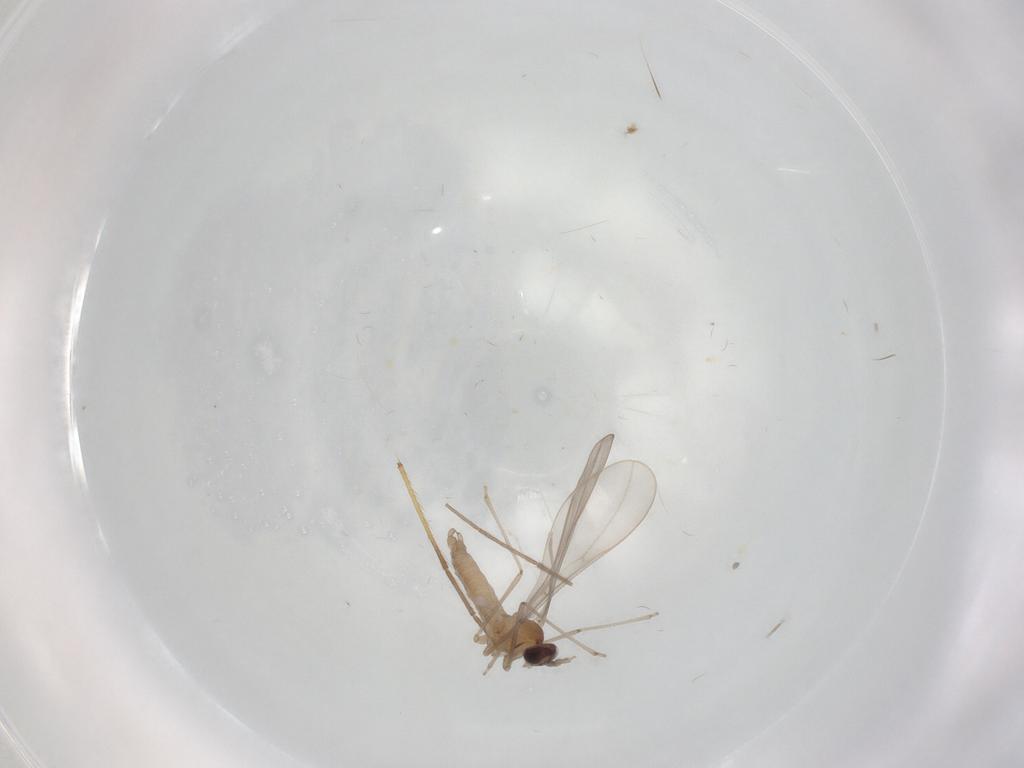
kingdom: Animalia
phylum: Arthropoda
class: Insecta
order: Diptera
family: Cecidomyiidae
